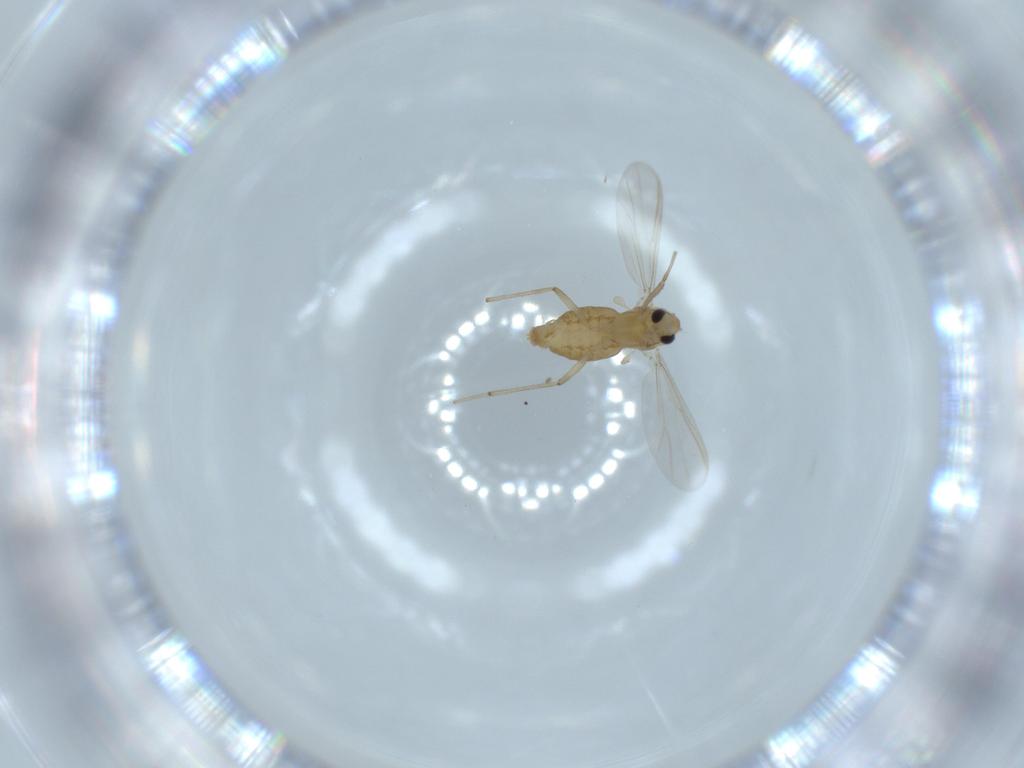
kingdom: Animalia
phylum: Arthropoda
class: Insecta
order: Diptera
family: Chironomidae
